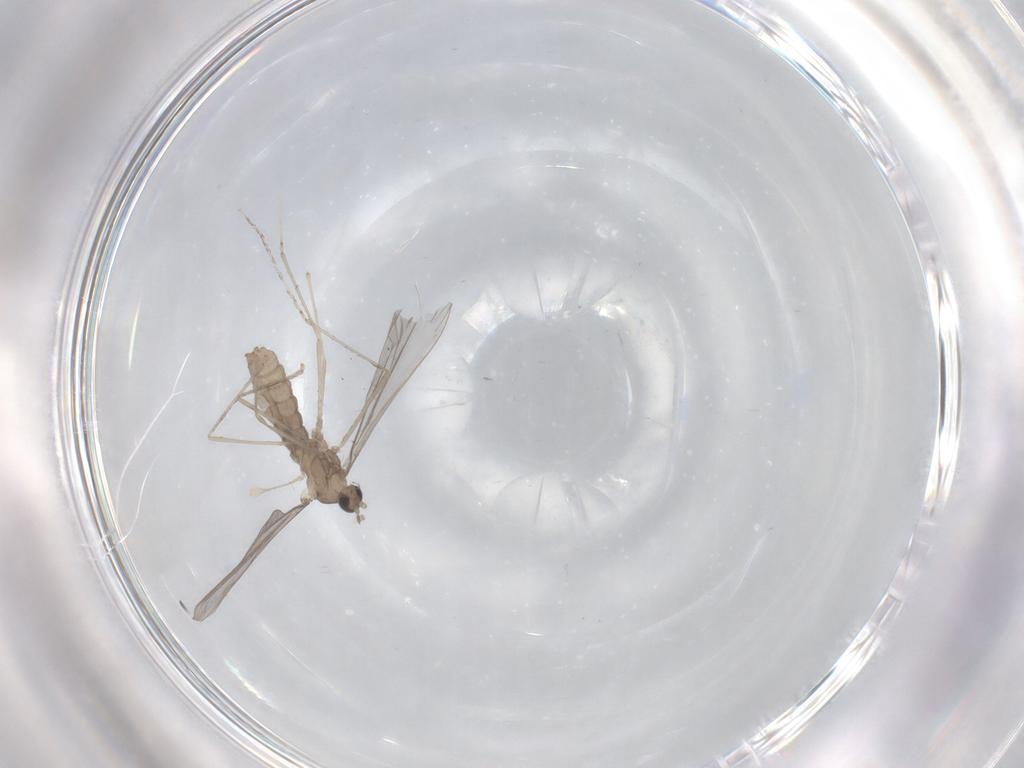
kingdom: Animalia
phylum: Arthropoda
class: Insecta
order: Diptera
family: Cecidomyiidae
